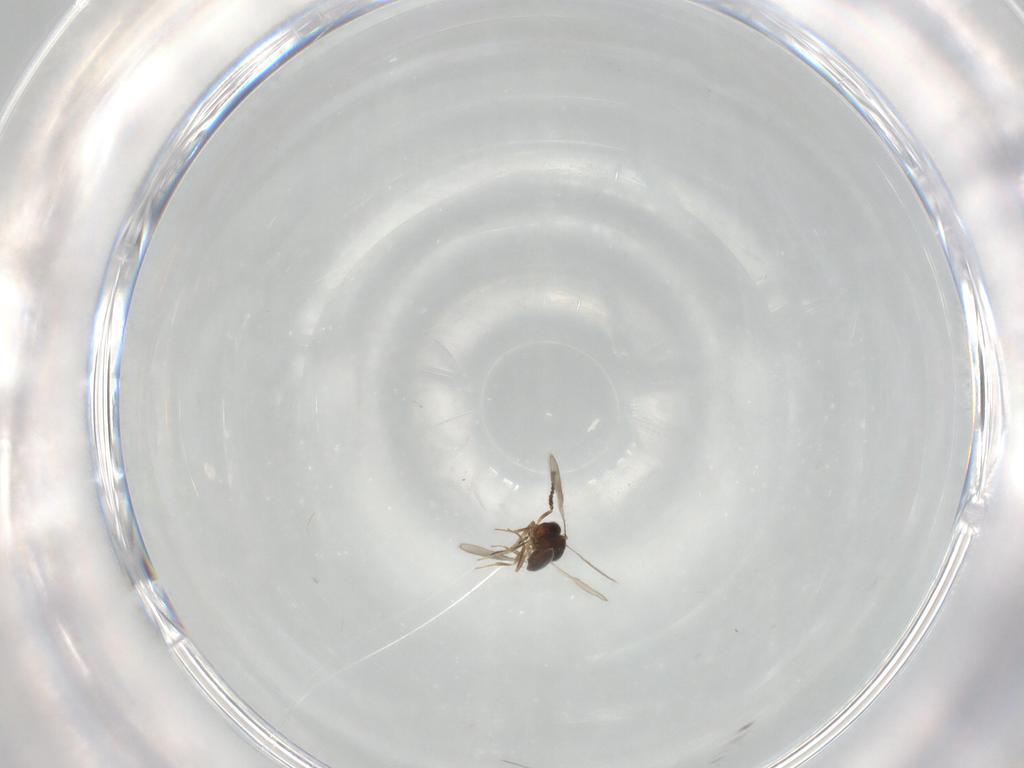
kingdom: Animalia
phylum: Arthropoda
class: Insecta
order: Hymenoptera
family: Scelionidae
